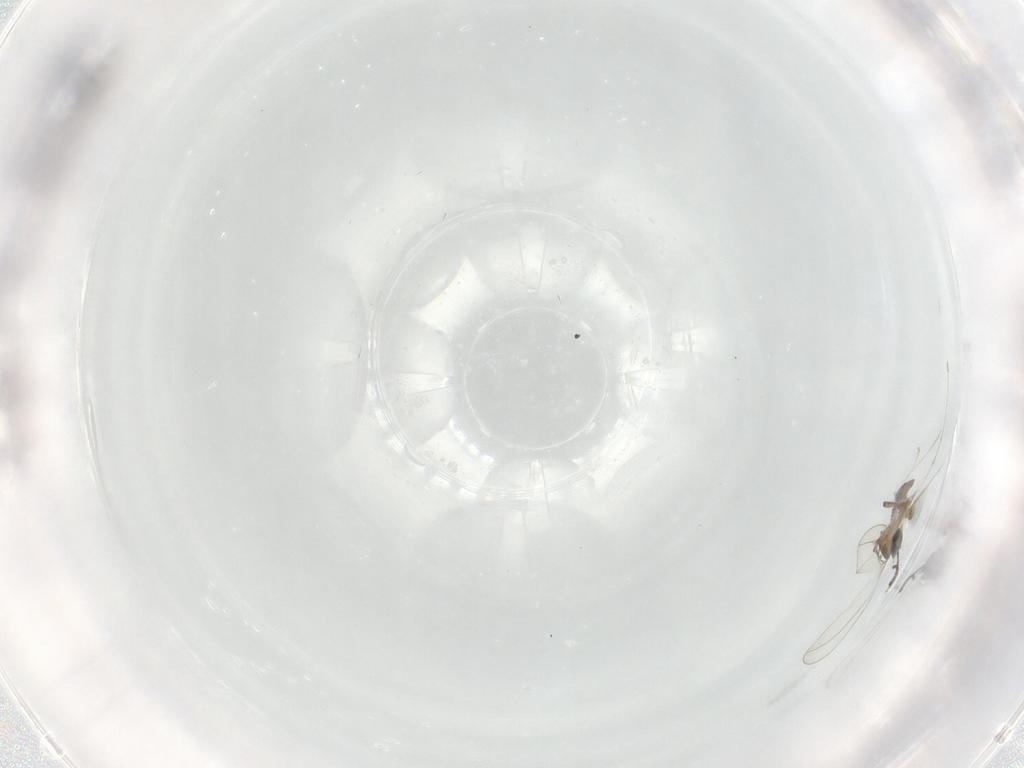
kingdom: Animalia
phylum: Arthropoda
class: Insecta
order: Diptera
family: Cecidomyiidae
